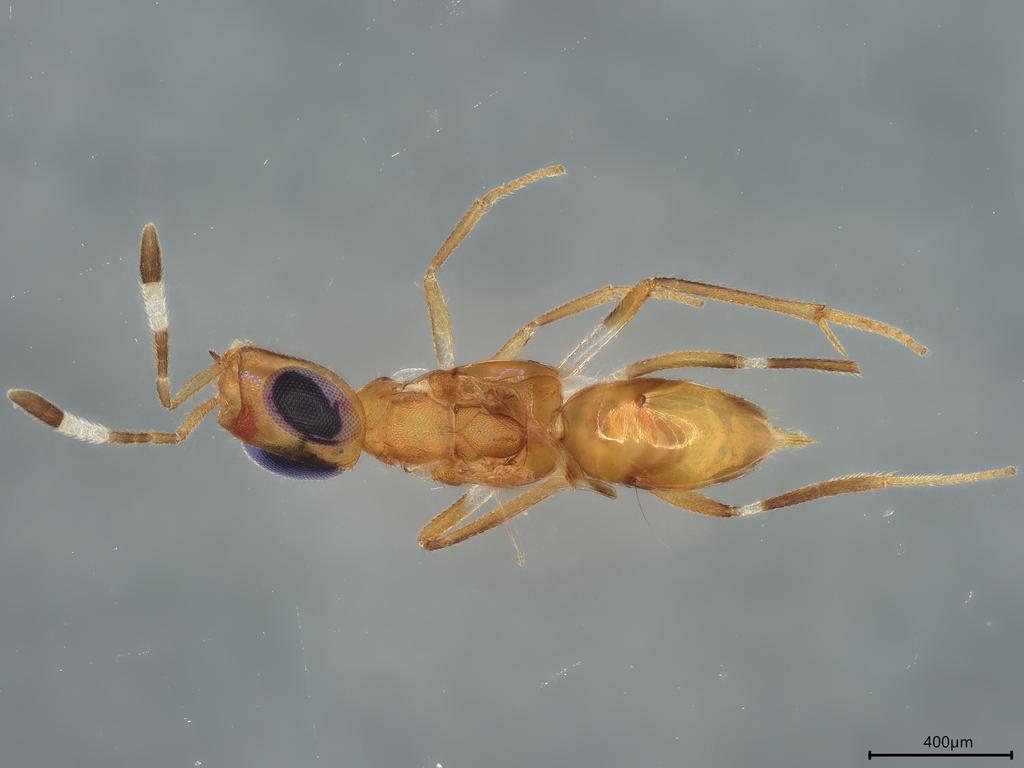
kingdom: Animalia
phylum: Arthropoda
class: Insecta
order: Hymenoptera
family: Encyrtidae
